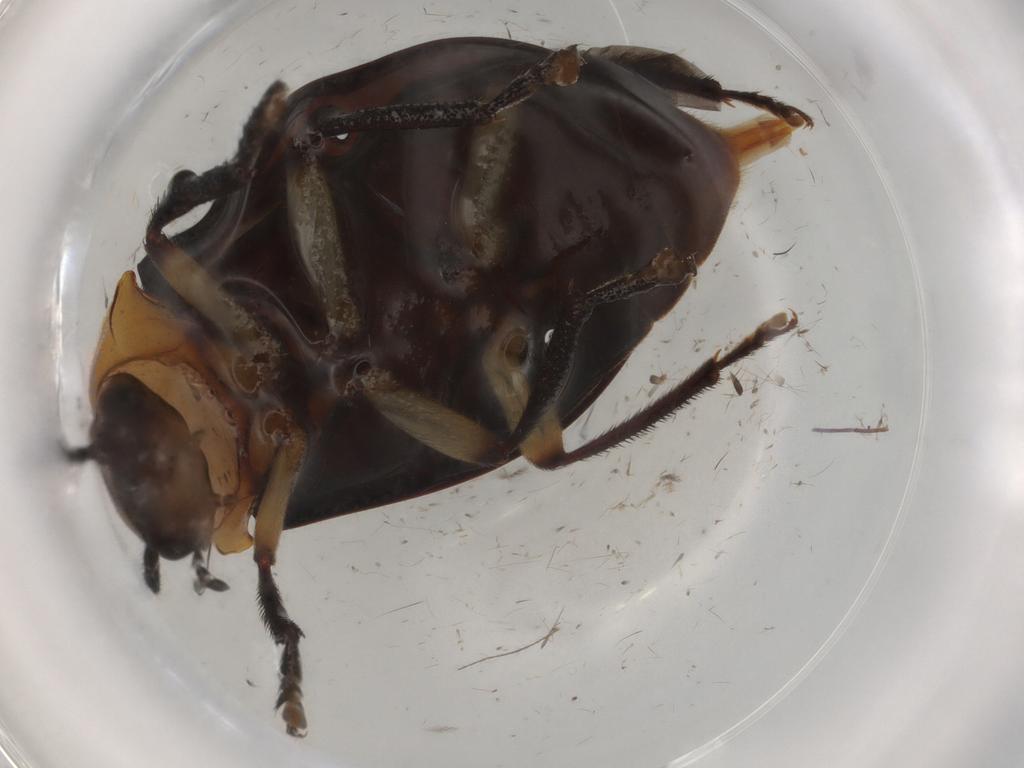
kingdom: Animalia
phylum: Arthropoda
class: Insecta
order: Coleoptera
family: Ptilodactylidae
